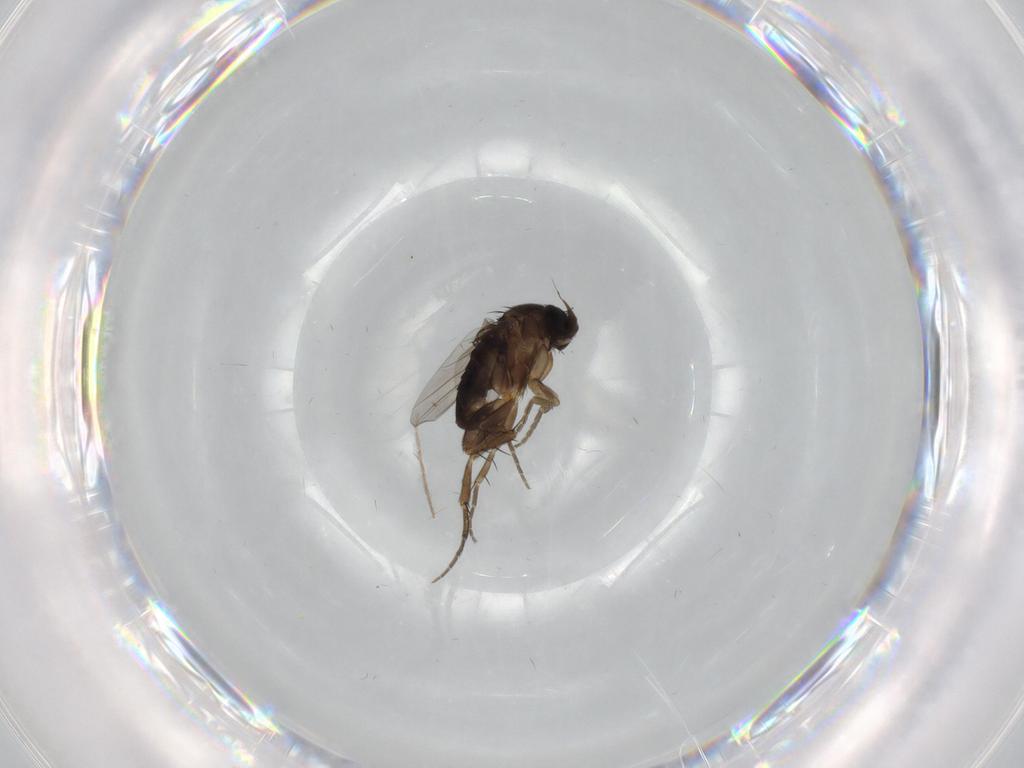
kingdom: Animalia
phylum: Arthropoda
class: Insecta
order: Diptera
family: Phoridae
